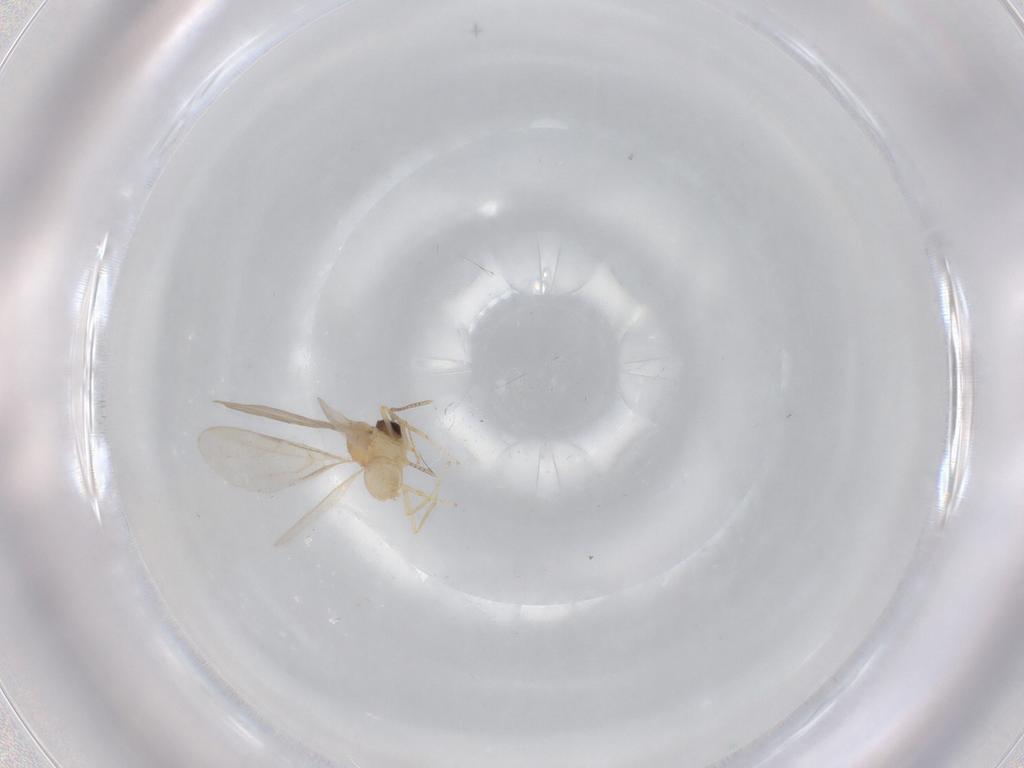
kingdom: Animalia
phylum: Arthropoda
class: Insecta
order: Hymenoptera
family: Formicidae
